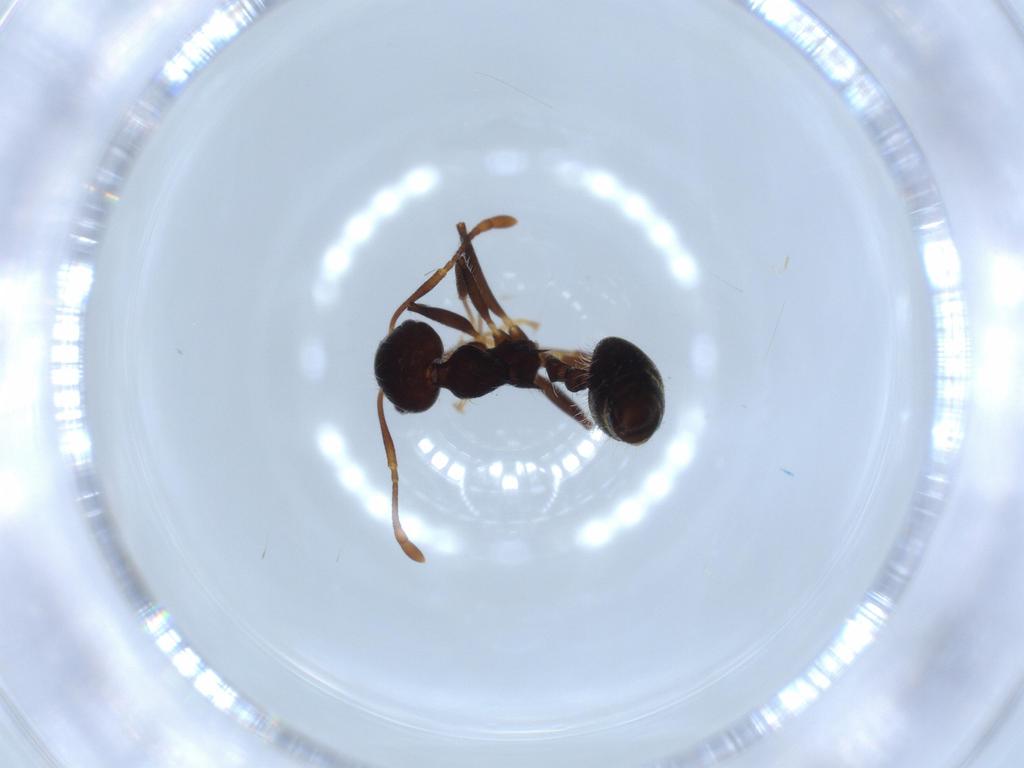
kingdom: Animalia
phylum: Arthropoda
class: Insecta
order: Hymenoptera
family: Formicidae
